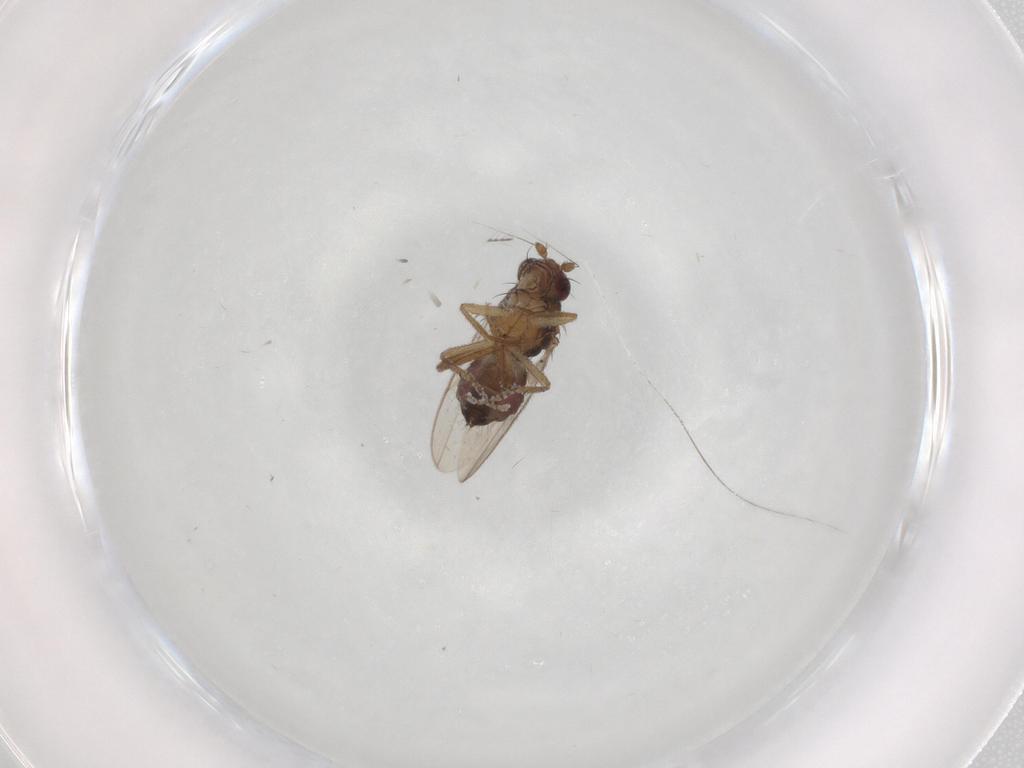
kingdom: Animalia
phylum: Arthropoda
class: Insecta
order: Diptera
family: Sphaeroceridae
